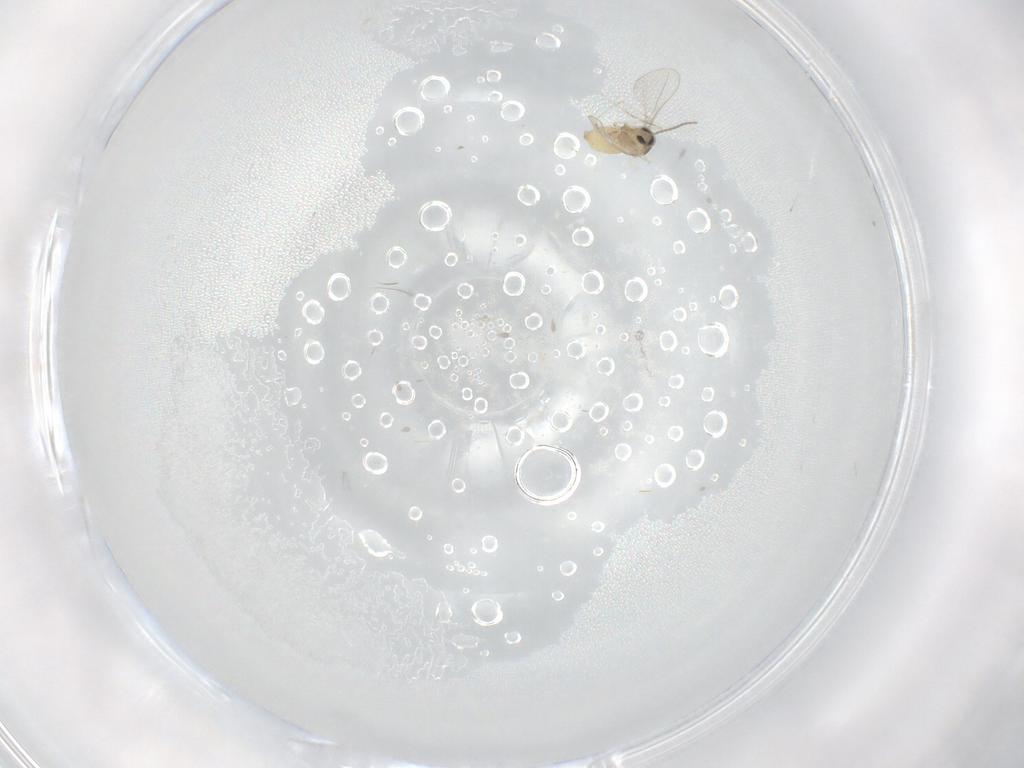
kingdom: Animalia
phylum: Arthropoda
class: Insecta
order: Diptera
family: Cecidomyiidae
